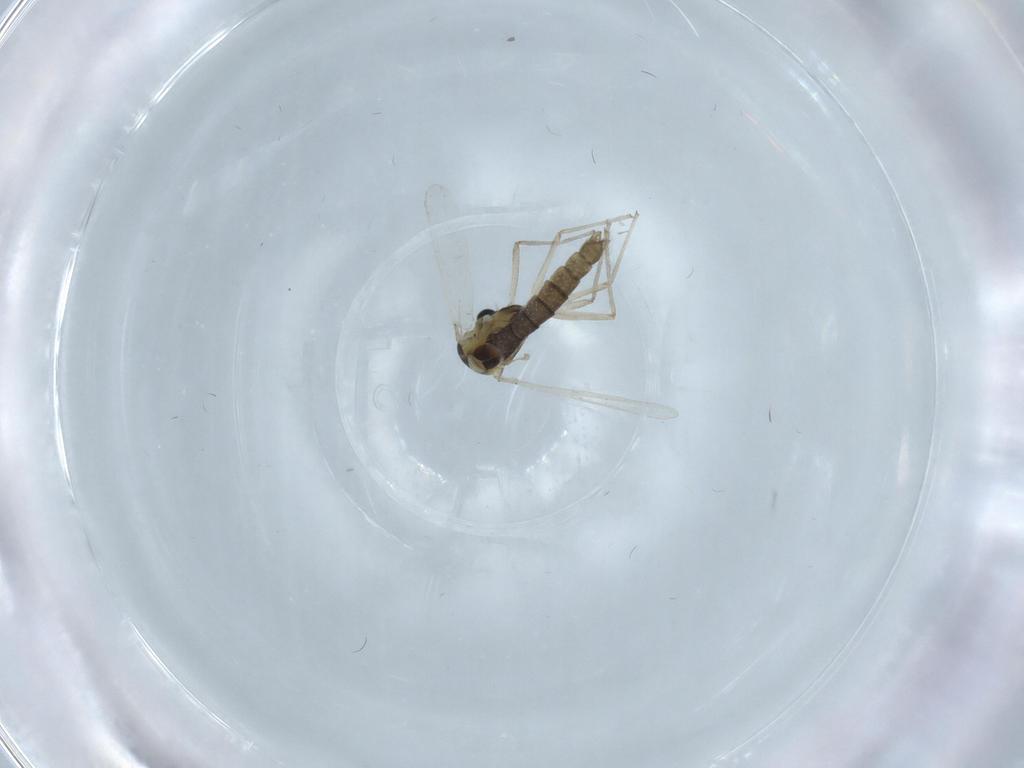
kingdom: Animalia
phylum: Arthropoda
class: Insecta
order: Diptera
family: Chironomidae
